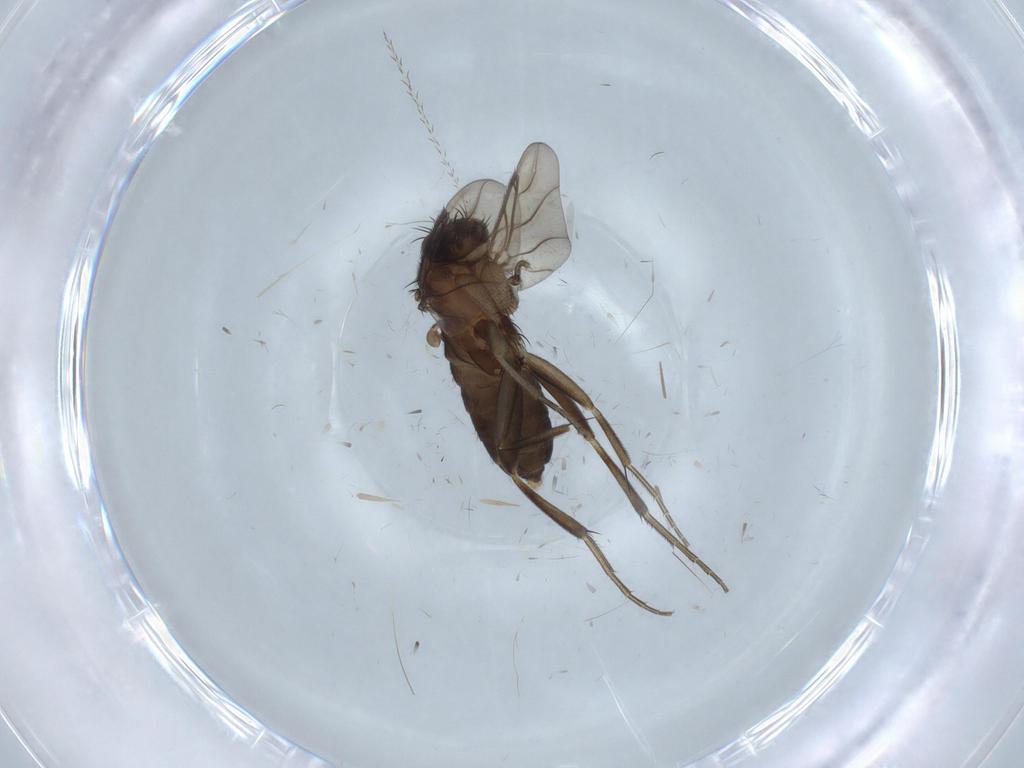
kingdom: Animalia
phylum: Arthropoda
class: Insecta
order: Diptera
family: Phoridae
